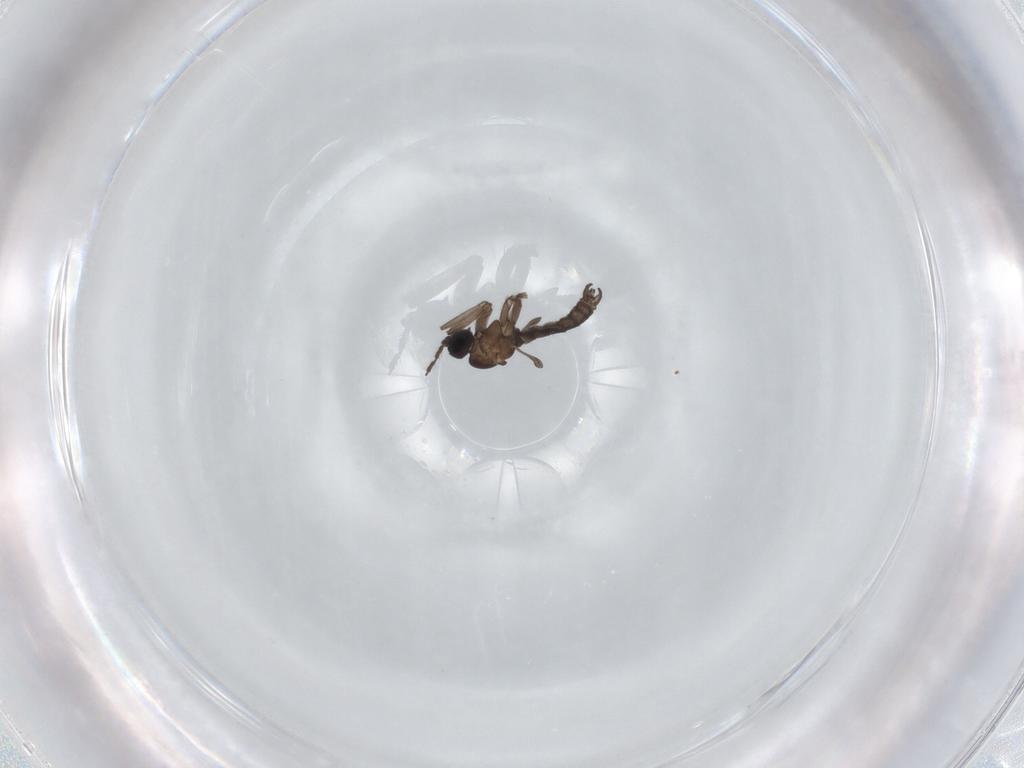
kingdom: Animalia
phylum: Arthropoda
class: Insecta
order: Diptera
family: Sciaridae
